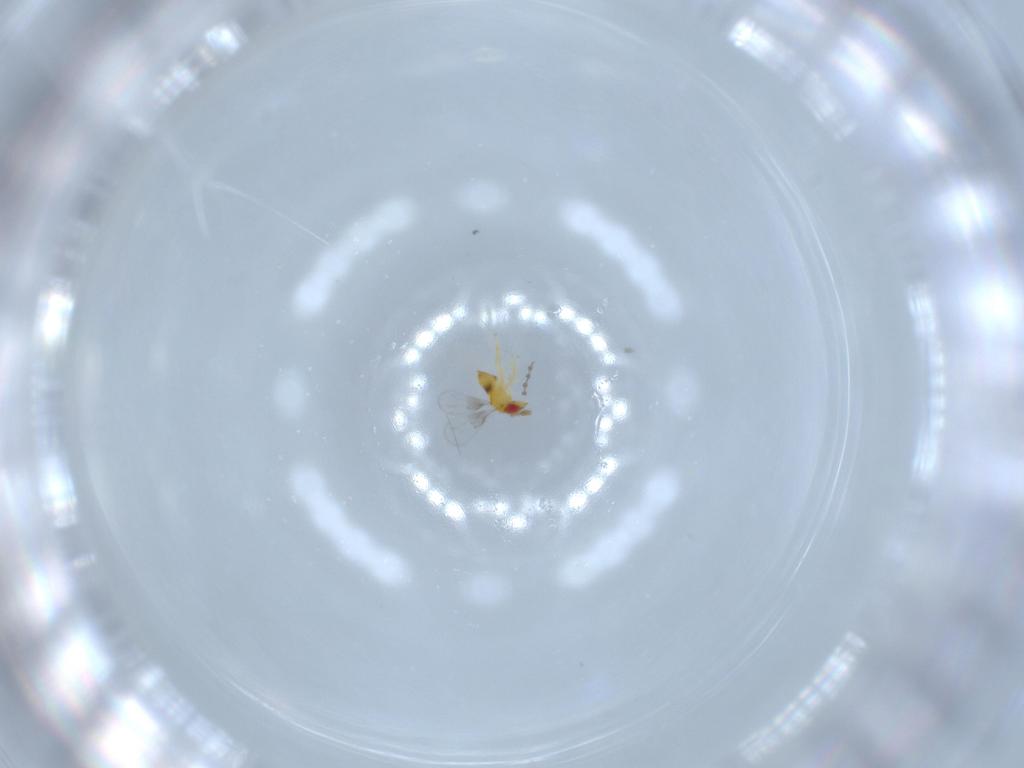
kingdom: Animalia
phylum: Arthropoda
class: Insecta
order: Hymenoptera
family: Trichogrammatidae
